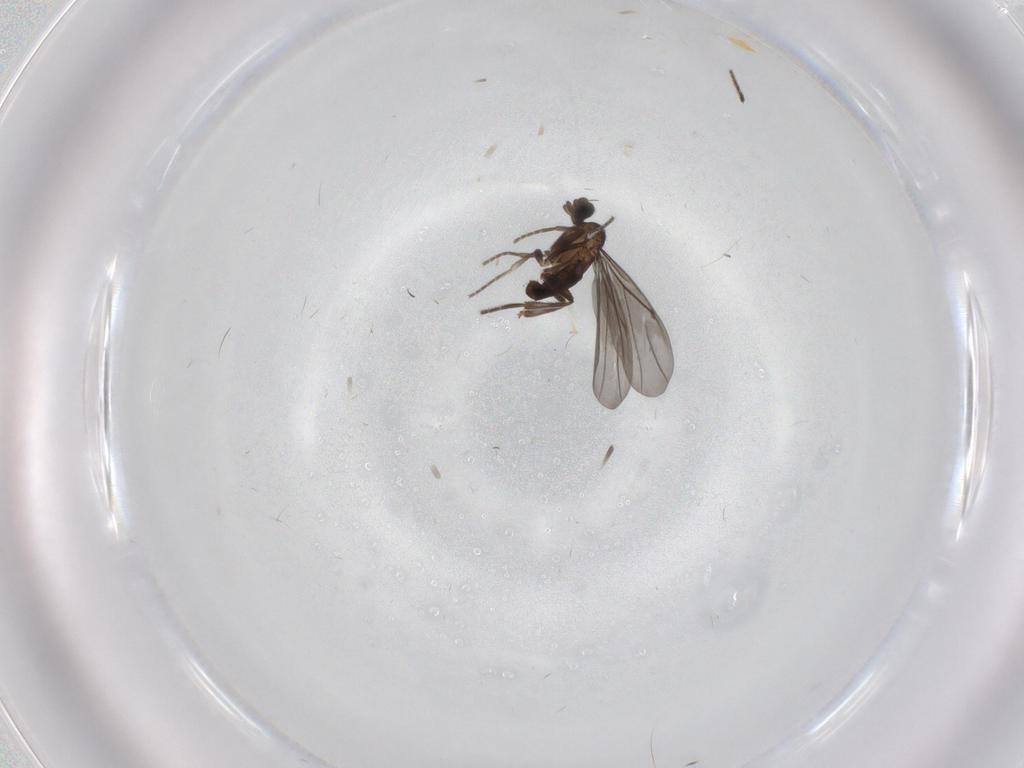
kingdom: Animalia
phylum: Arthropoda
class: Insecta
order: Diptera
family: Phoridae
